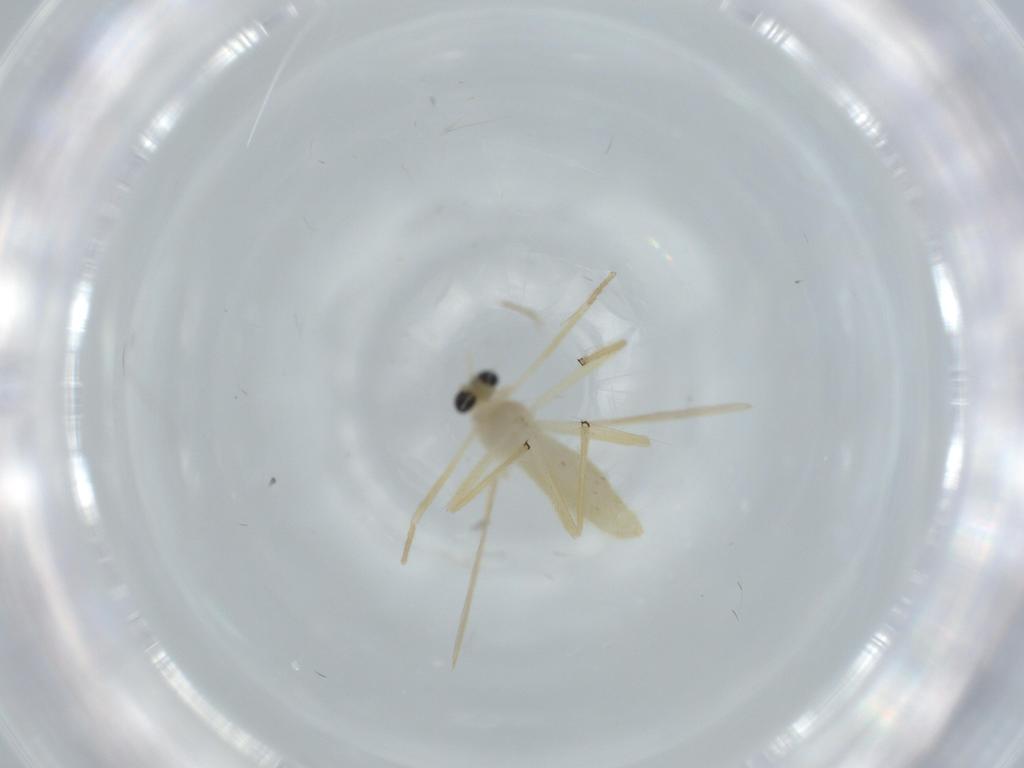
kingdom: Animalia
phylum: Arthropoda
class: Insecta
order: Diptera
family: Chironomidae
